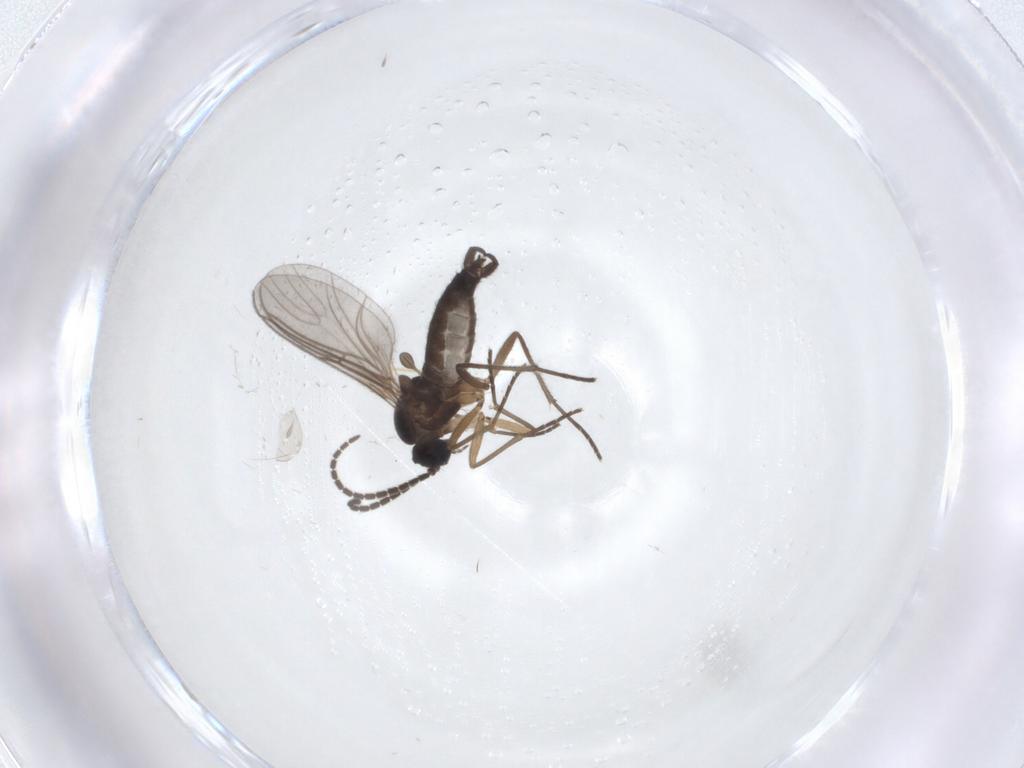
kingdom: Animalia
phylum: Arthropoda
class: Insecta
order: Diptera
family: Sciaridae
